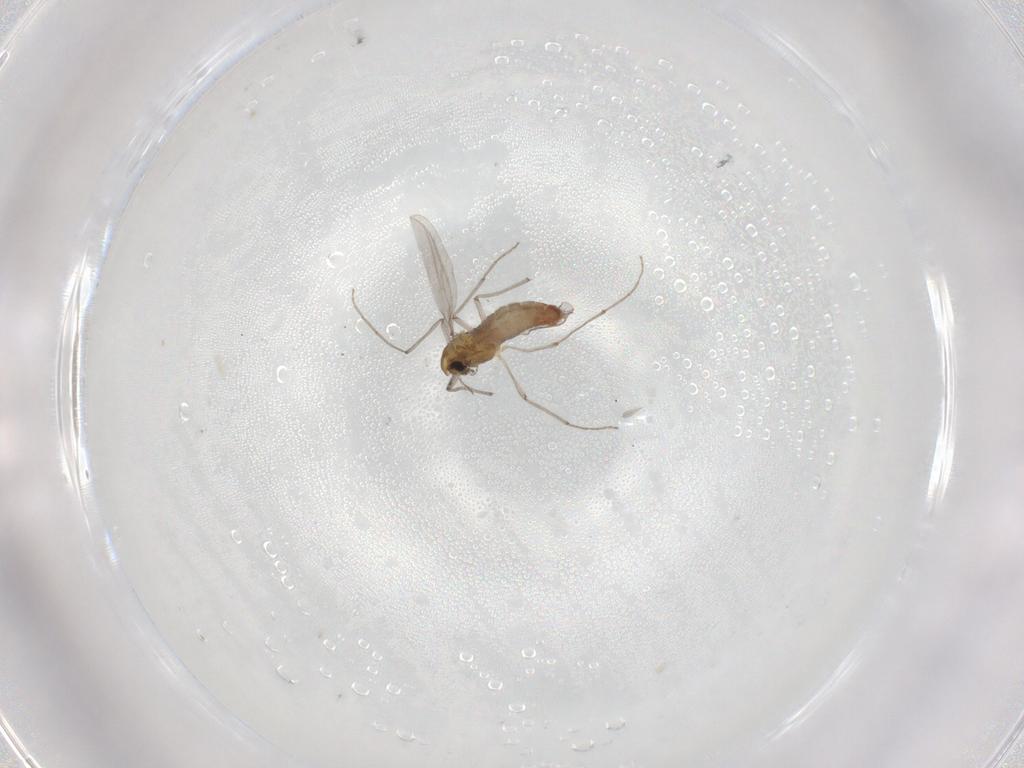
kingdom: Animalia
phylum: Arthropoda
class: Insecta
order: Diptera
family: Chironomidae
